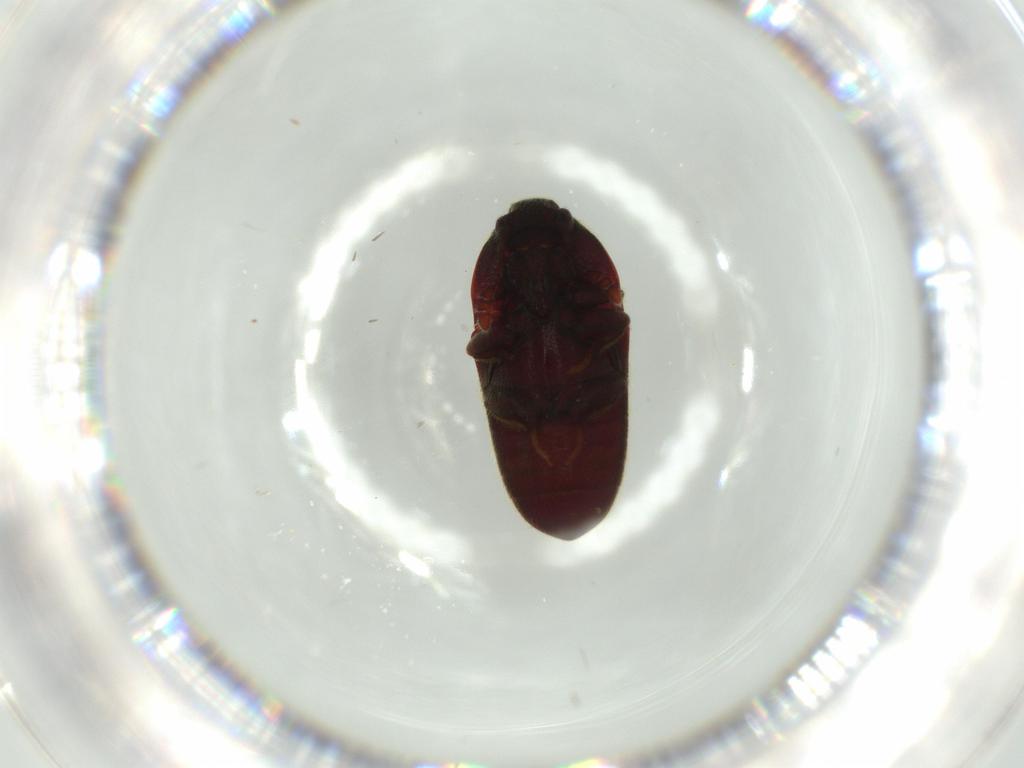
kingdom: Animalia
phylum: Arthropoda
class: Insecta
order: Coleoptera
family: Throscidae
